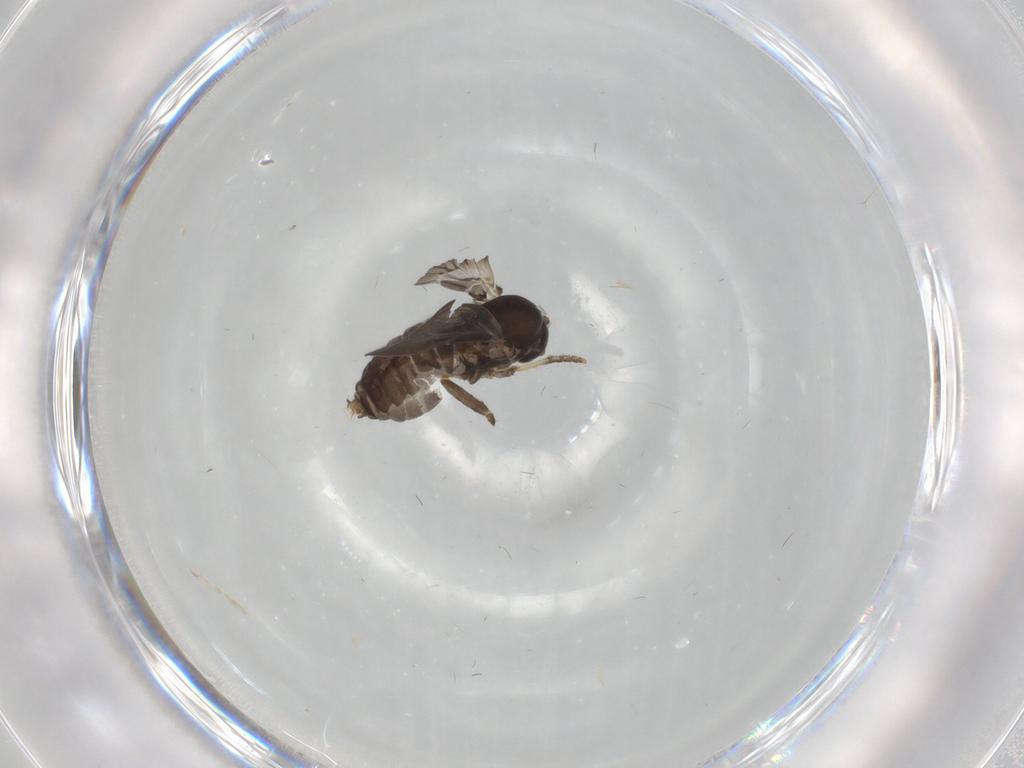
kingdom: Animalia
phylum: Arthropoda
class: Insecta
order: Diptera
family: Psychodidae
